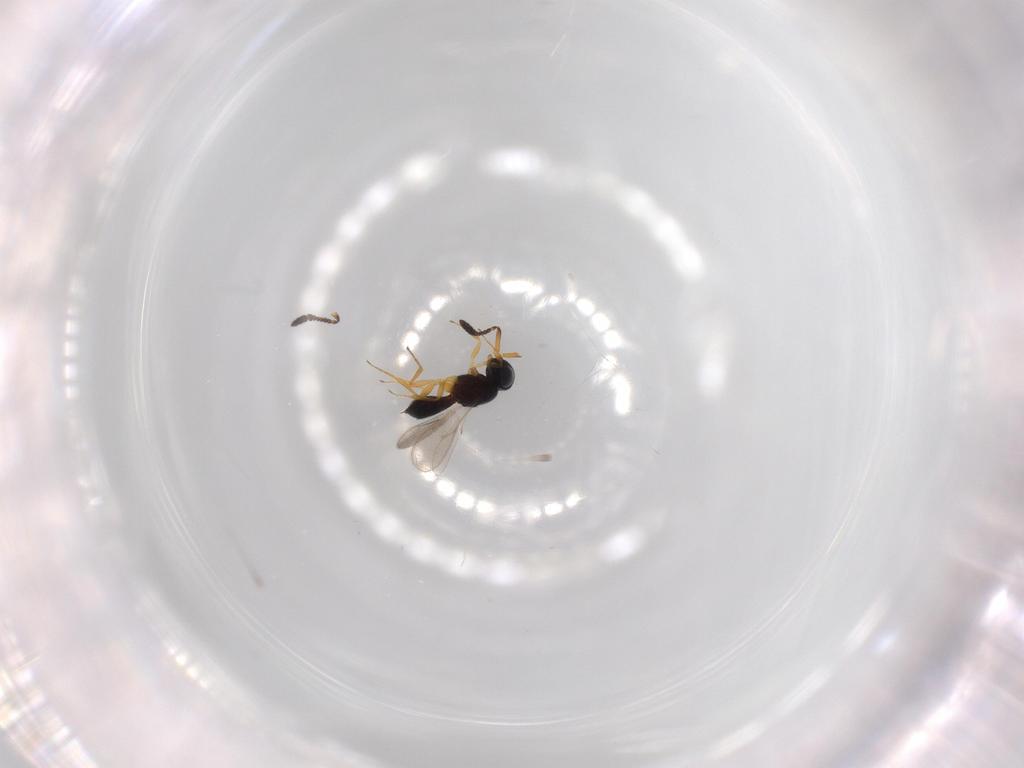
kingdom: Animalia
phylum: Arthropoda
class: Insecta
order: Hymenoptera
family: Scelionidae
